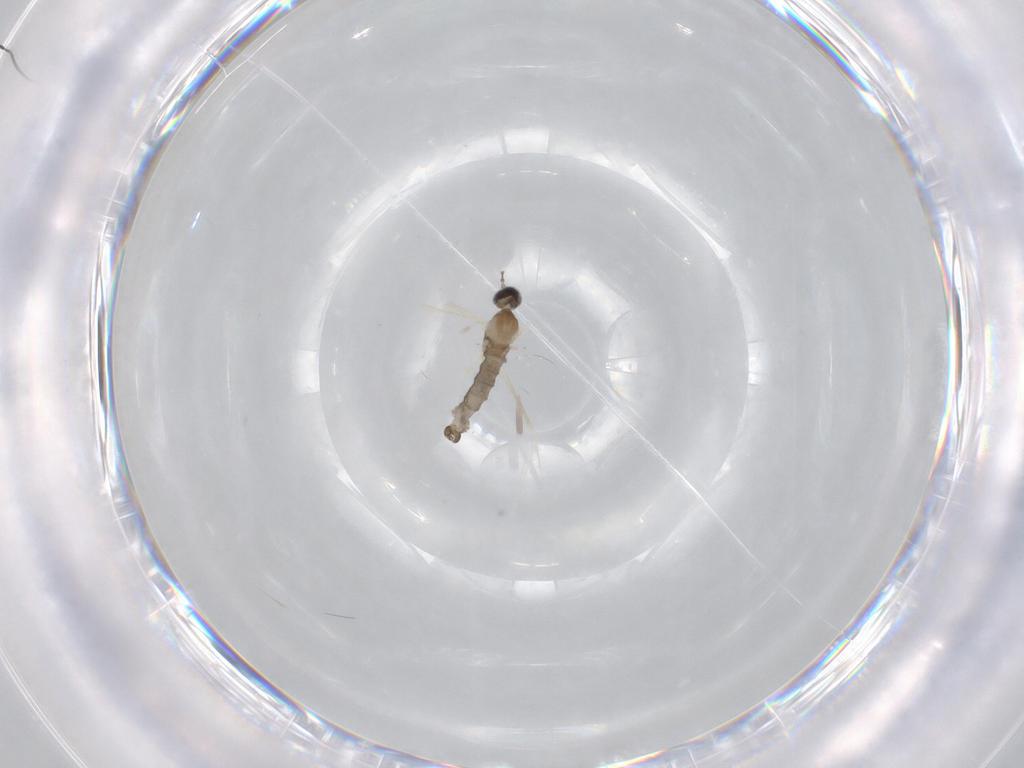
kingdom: Animalia
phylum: Arthropoda
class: Insecta
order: Diptera
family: Cecidomyiidae
